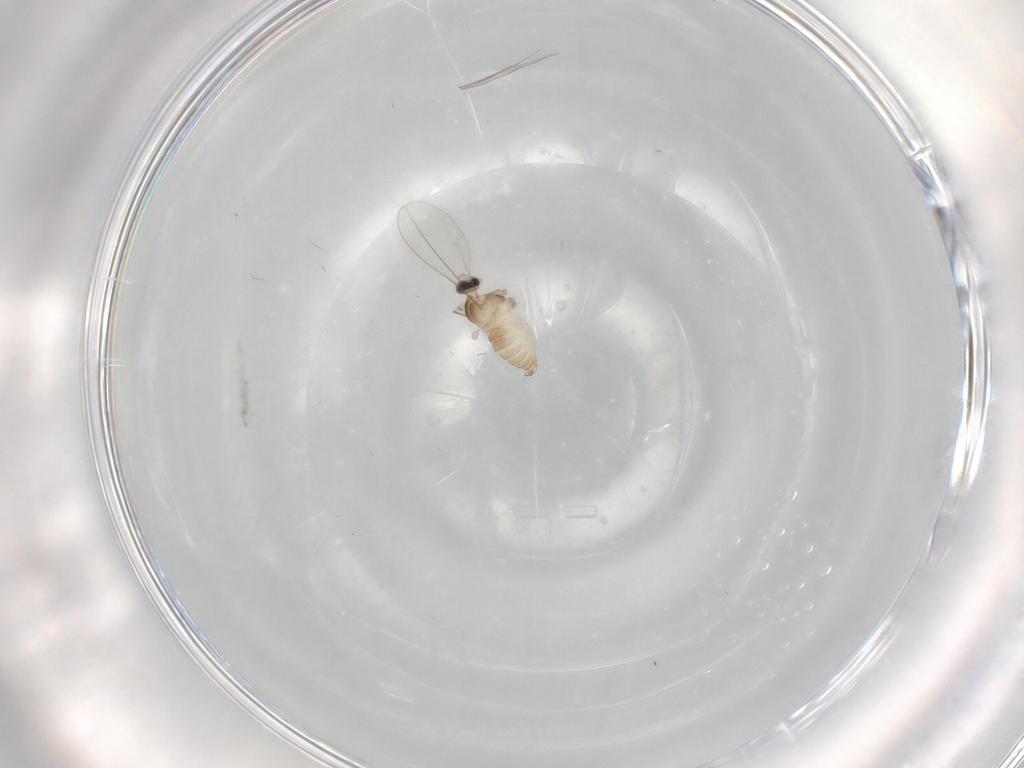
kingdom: Animalia
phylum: Arthropoda
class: Insecta
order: Diptera
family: Cecidomyiidae
